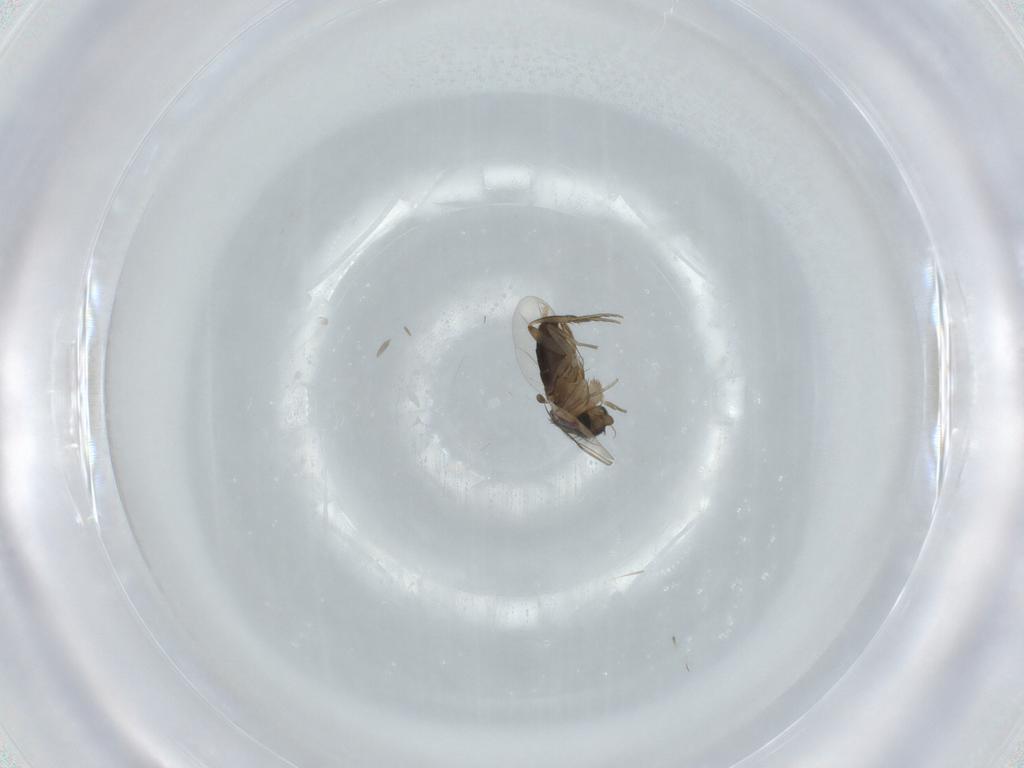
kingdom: Animalia
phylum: Arthropoda
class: Insecta
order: Diptera
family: Phoridae
